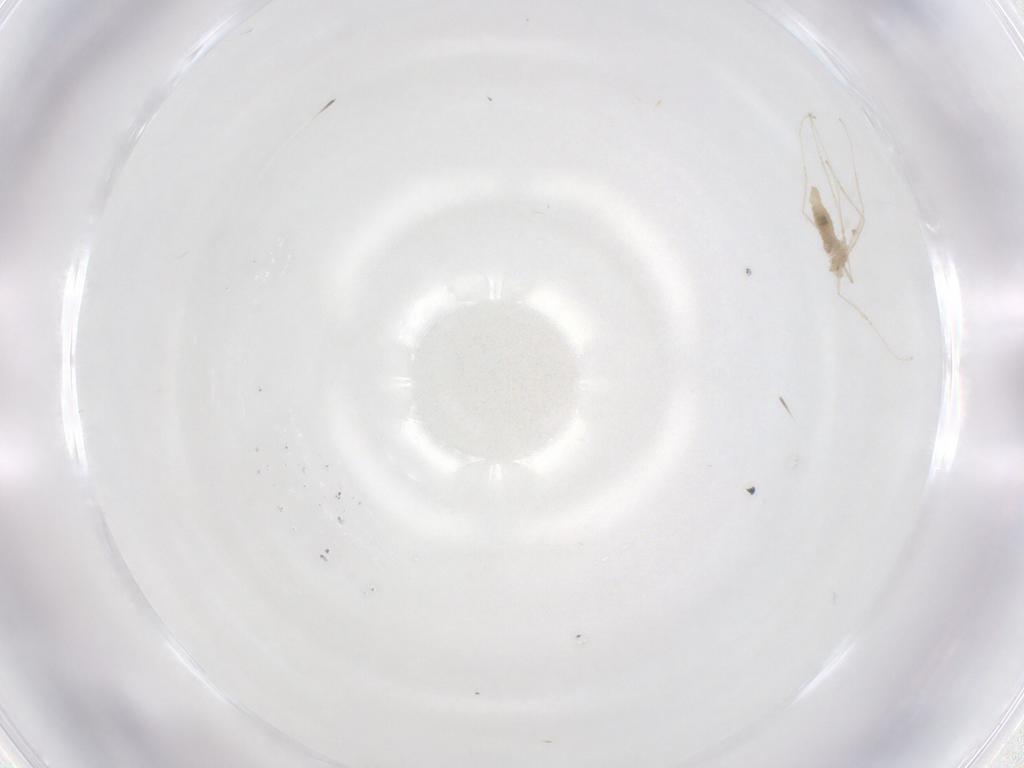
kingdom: Animalia
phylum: Arthropoda
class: Insecta
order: Diptera
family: Cecidomyiidae
